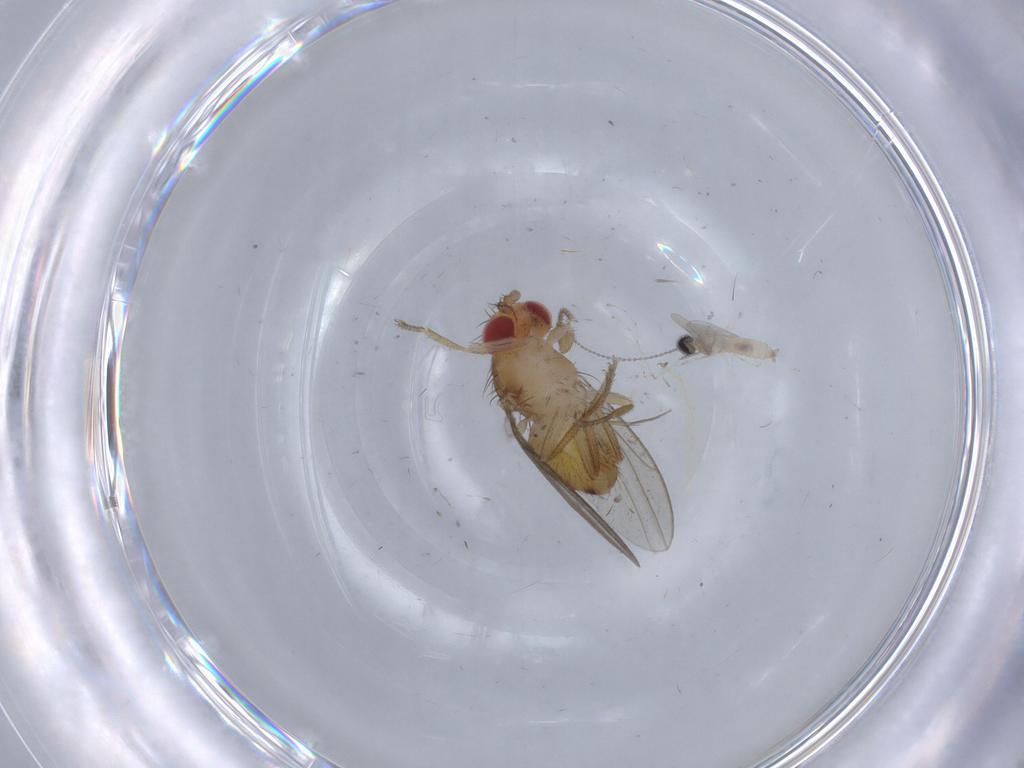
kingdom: Animalia
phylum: Arthropoda
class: Insecta
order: Diptera
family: Drosophilidae
